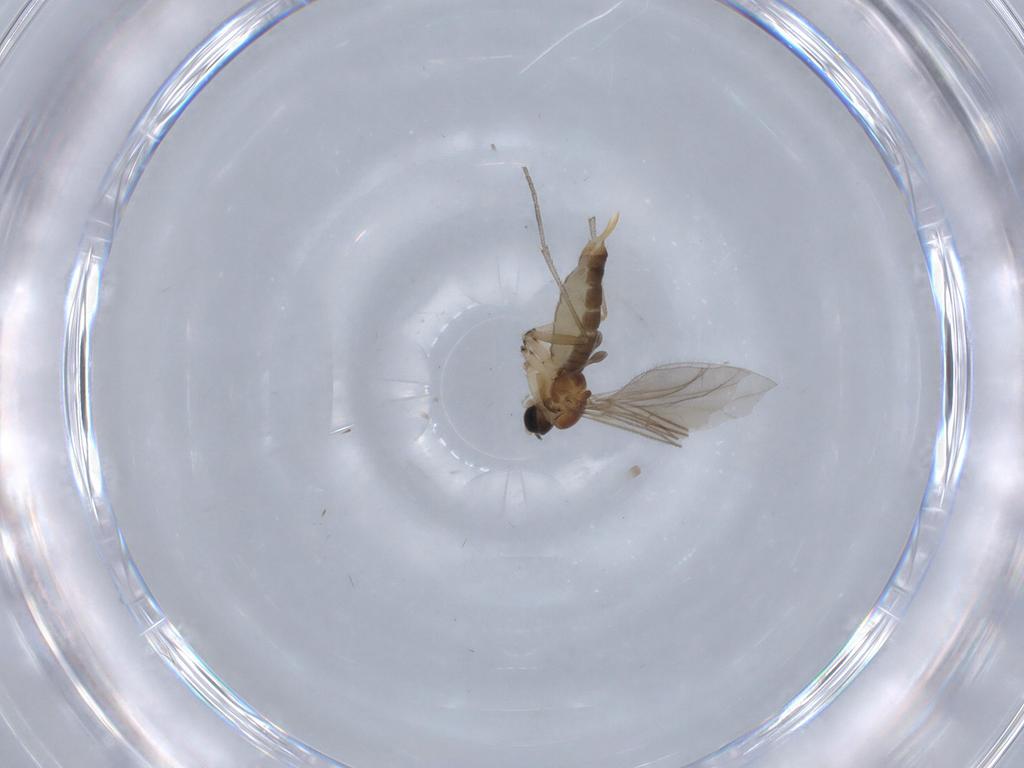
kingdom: Animalia
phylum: Arthropoda
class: Insecta
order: Diptera
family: Sciaridae
